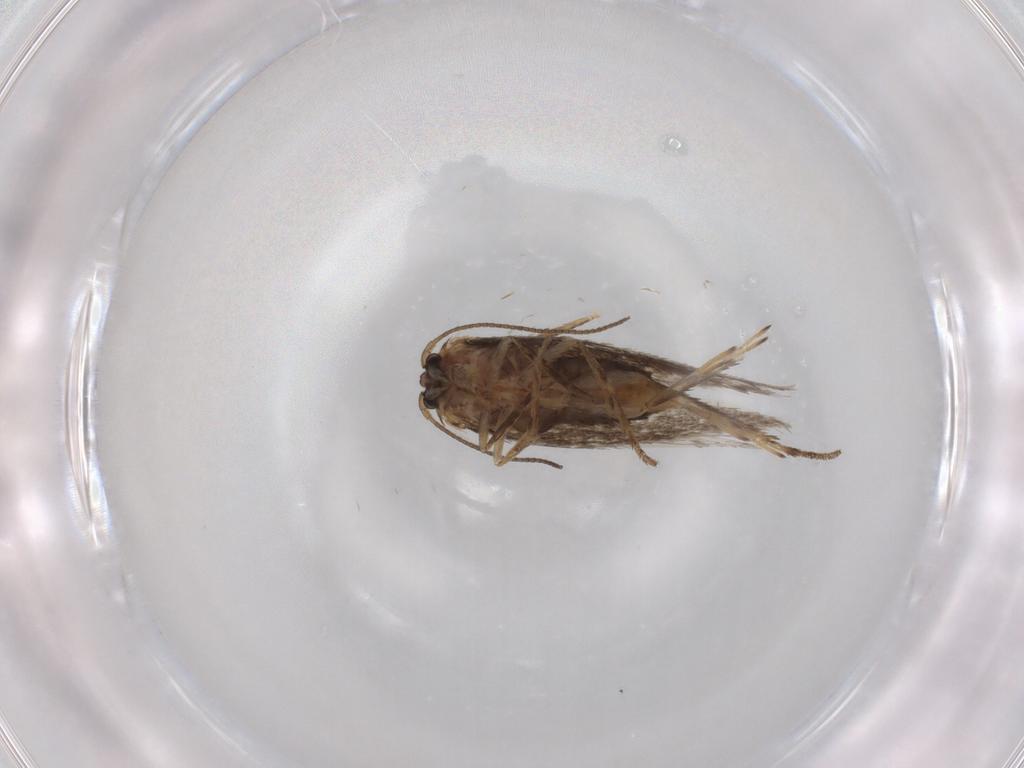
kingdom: Animalia
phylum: Arthropoda
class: Insecta
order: Lepidoptera
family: Nepticulidae
